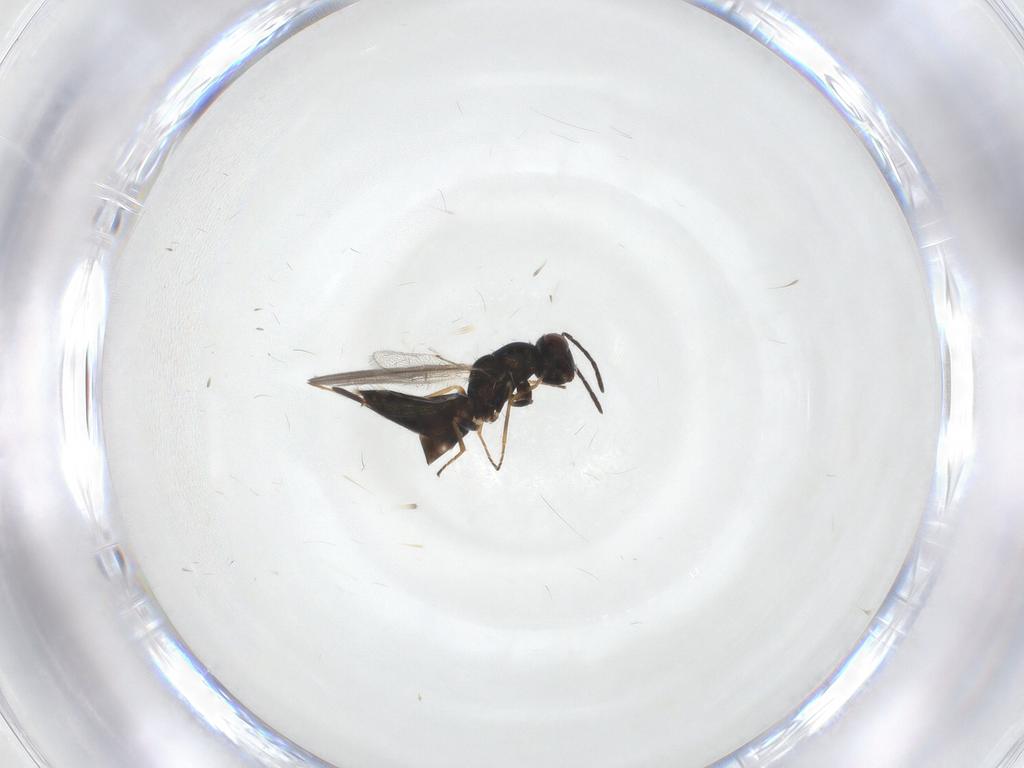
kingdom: Animalia
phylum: Arthropoda
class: Insecta
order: Hymenoptera
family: Eulophidae
